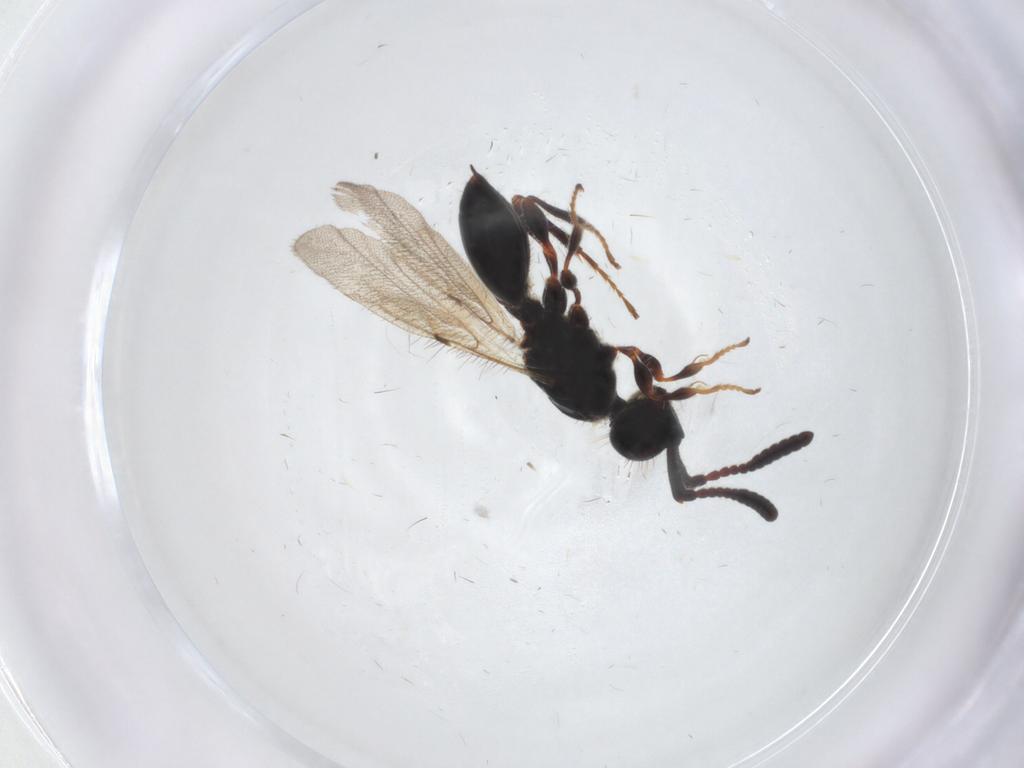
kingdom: Animalia
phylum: Arthropoda
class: Insecta
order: Hymenoptera
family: Diapriidae
